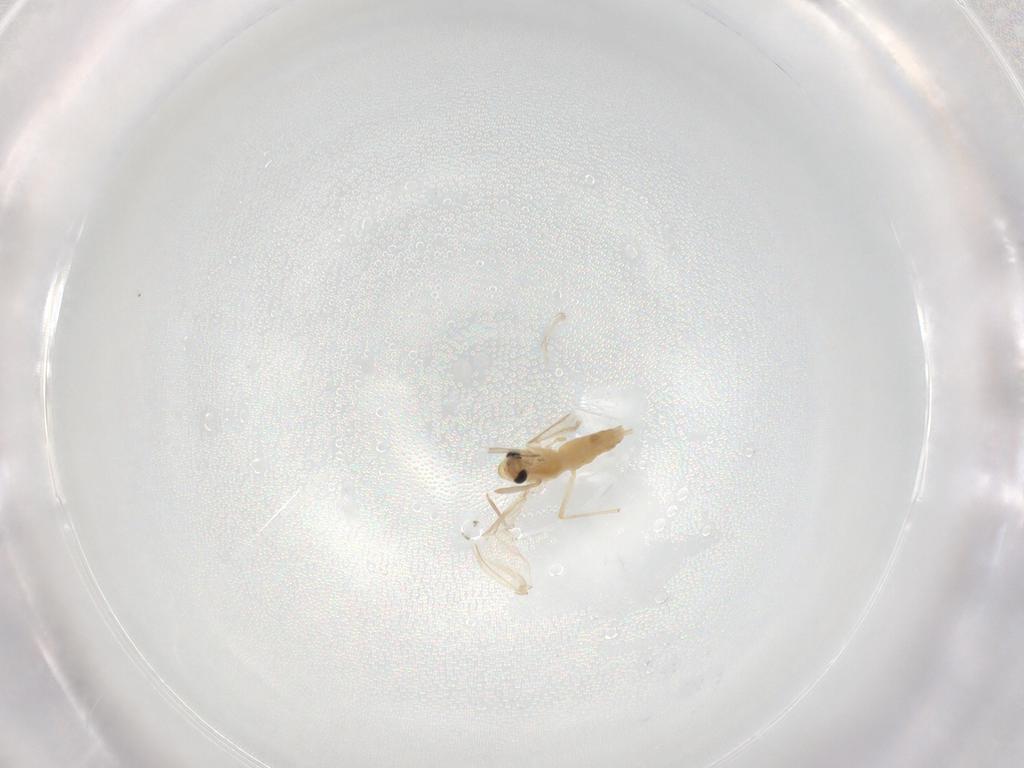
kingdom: Animalia
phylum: Arthropoda
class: Insecta
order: Diptera
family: Chironomidae
